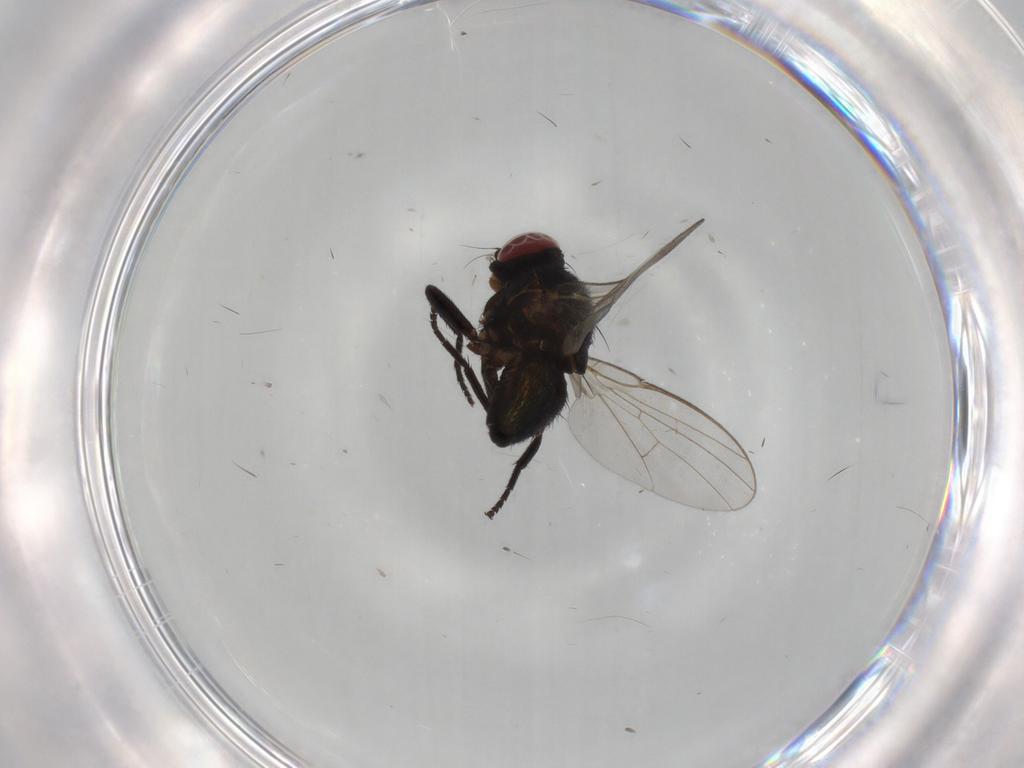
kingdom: Animalia
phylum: Arthropoda
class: Insecta
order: Diptera
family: Agromyzidae
